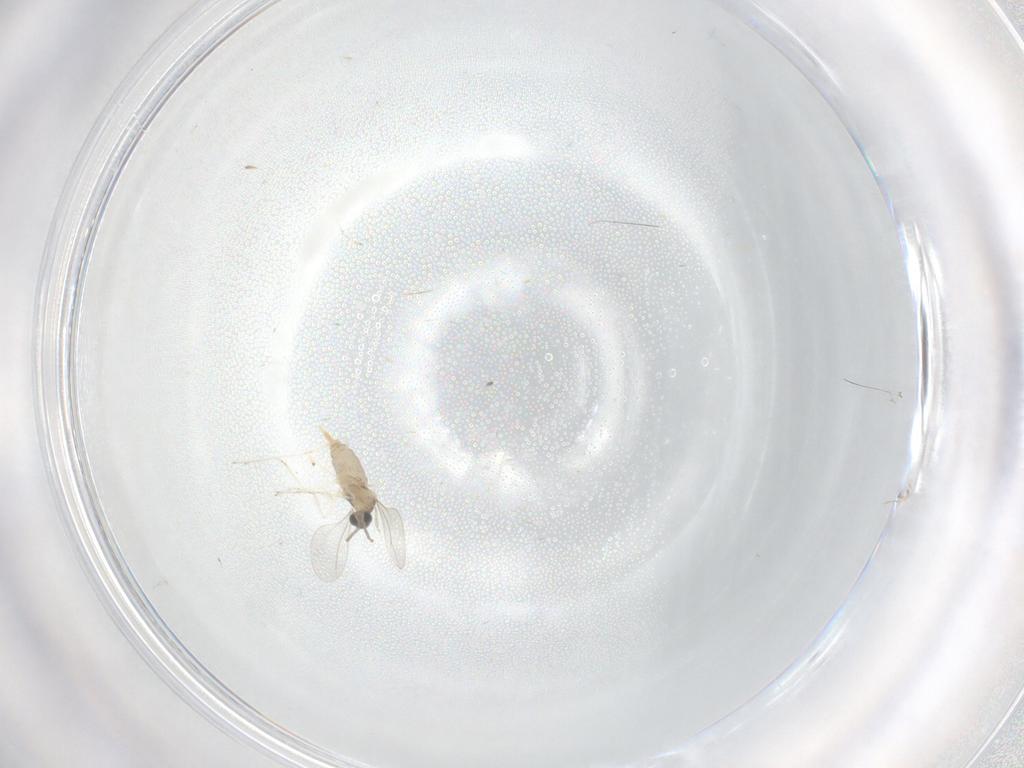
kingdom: Animalia
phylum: Arthropoda
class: Insecta
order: Diptera
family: Cecidomyiidae
